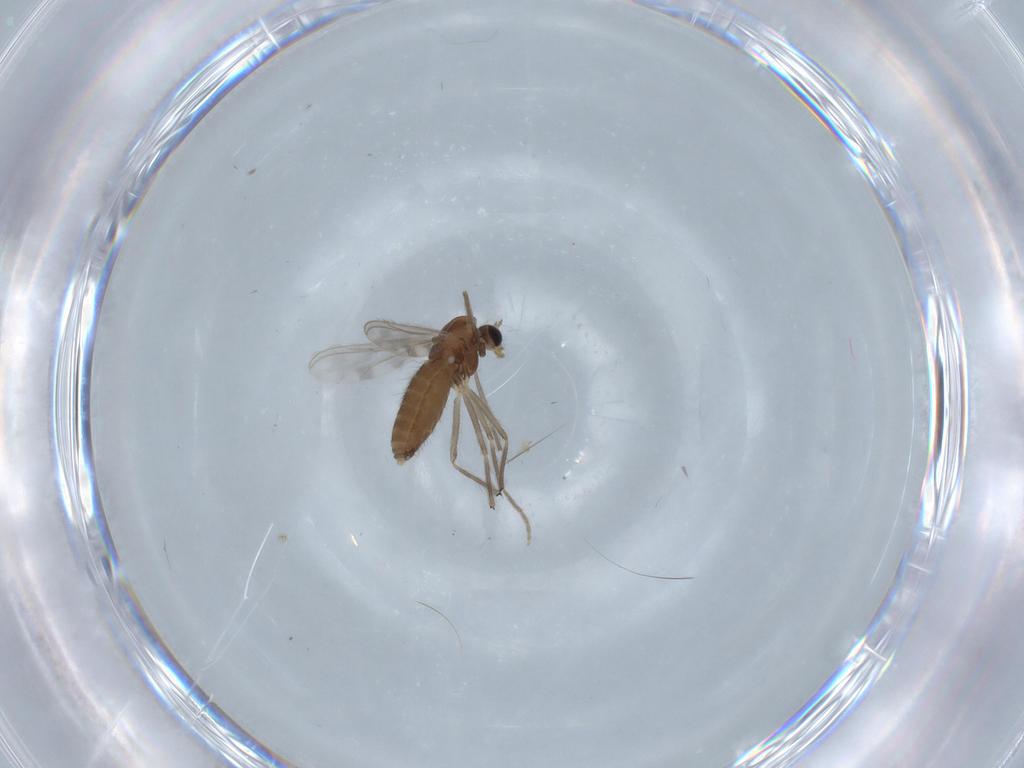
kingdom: Animalia
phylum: Arthropoda
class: Insecta
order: Diptera
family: Chironomidae
